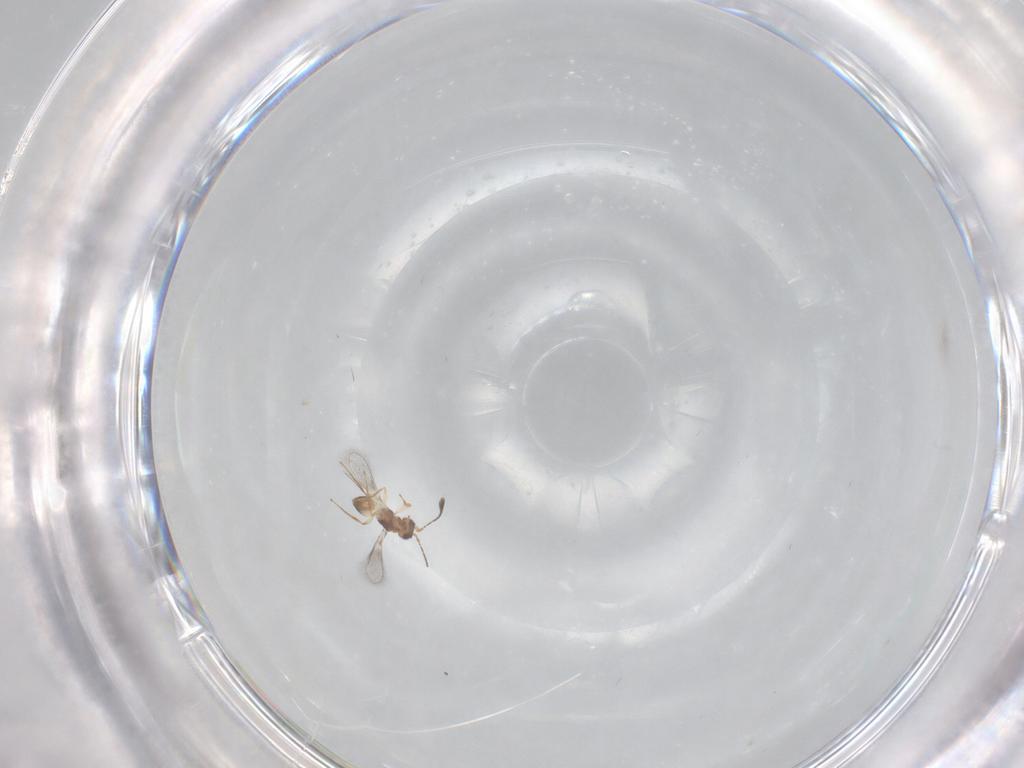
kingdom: Animalia
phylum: Arthropoda
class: Insecta
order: Hymenoptera
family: Mymaridae
